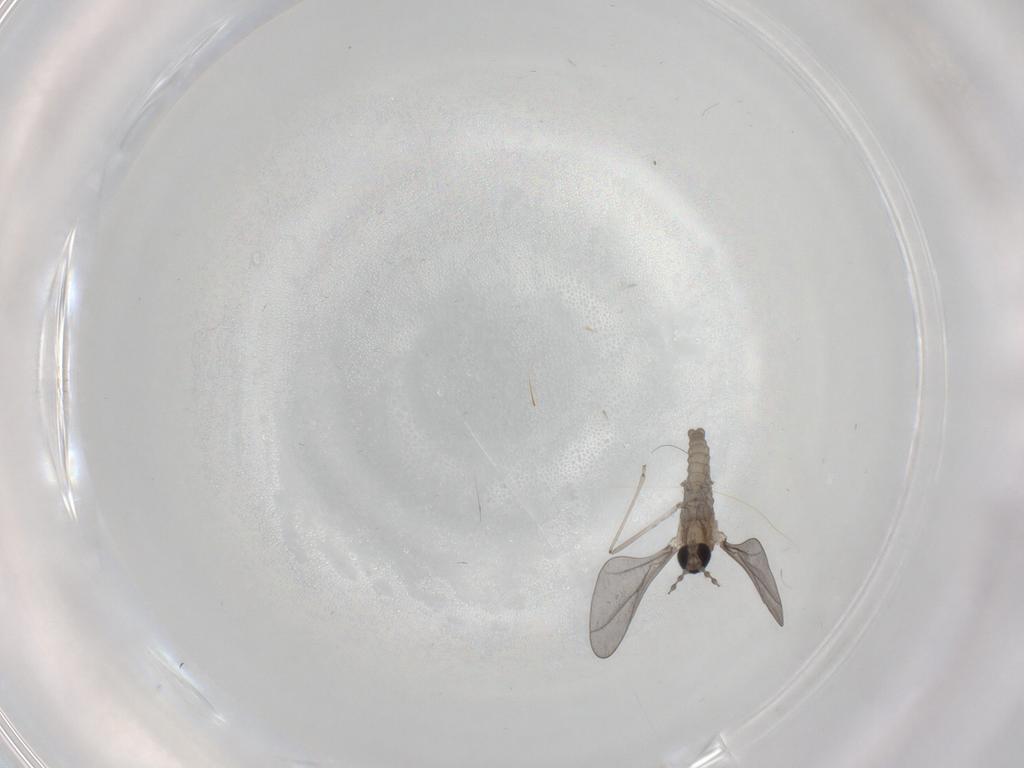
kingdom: Animalia
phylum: Arthropoda
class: Insecta
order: Diptera
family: Cecidomyiidae
